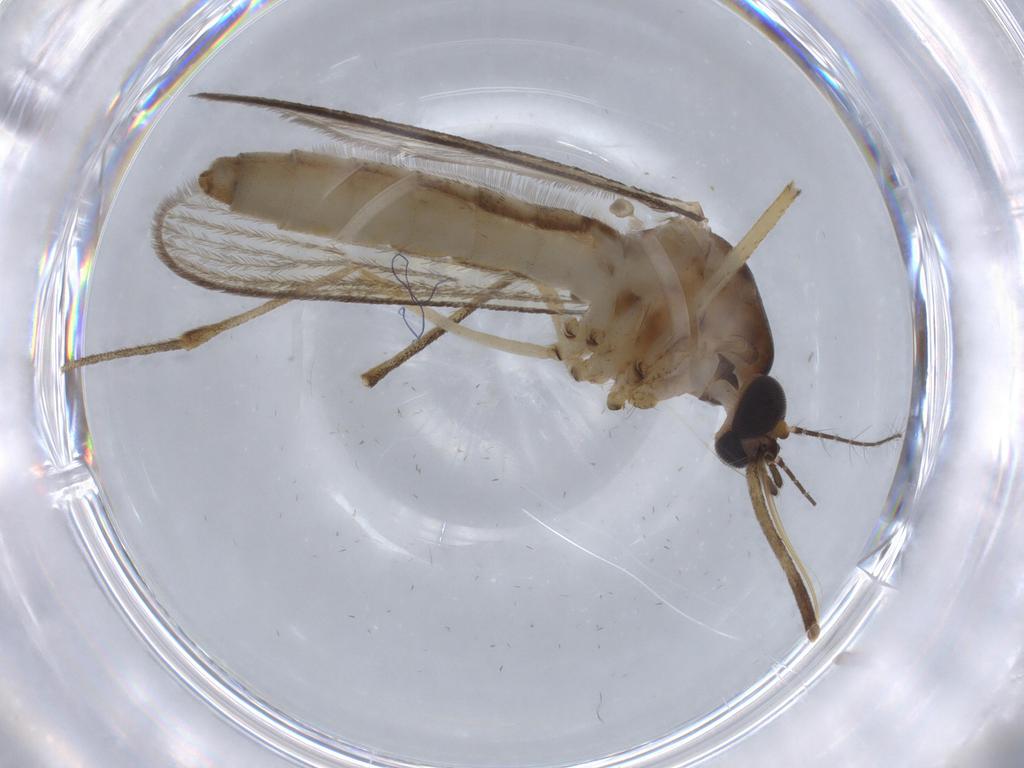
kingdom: Animalia
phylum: Arthropoda
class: Insecta
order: Diptera
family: Culicidae
